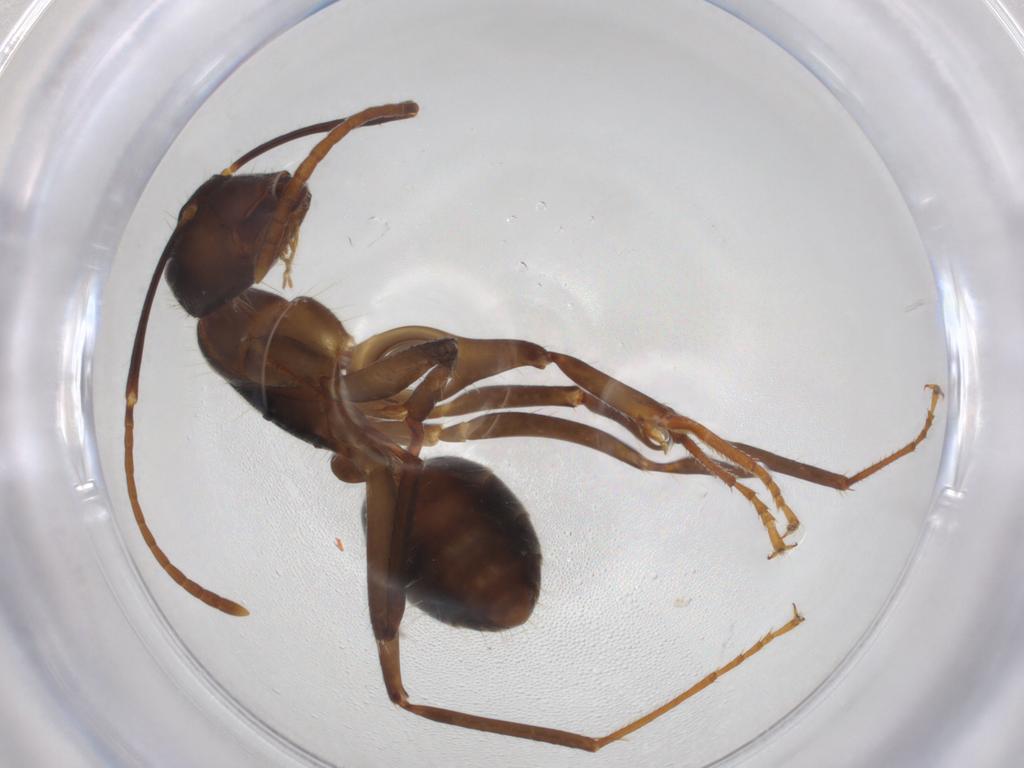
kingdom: Animalia
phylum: Arthropoda
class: Insecta
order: Hymenoptera
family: Formicidae
